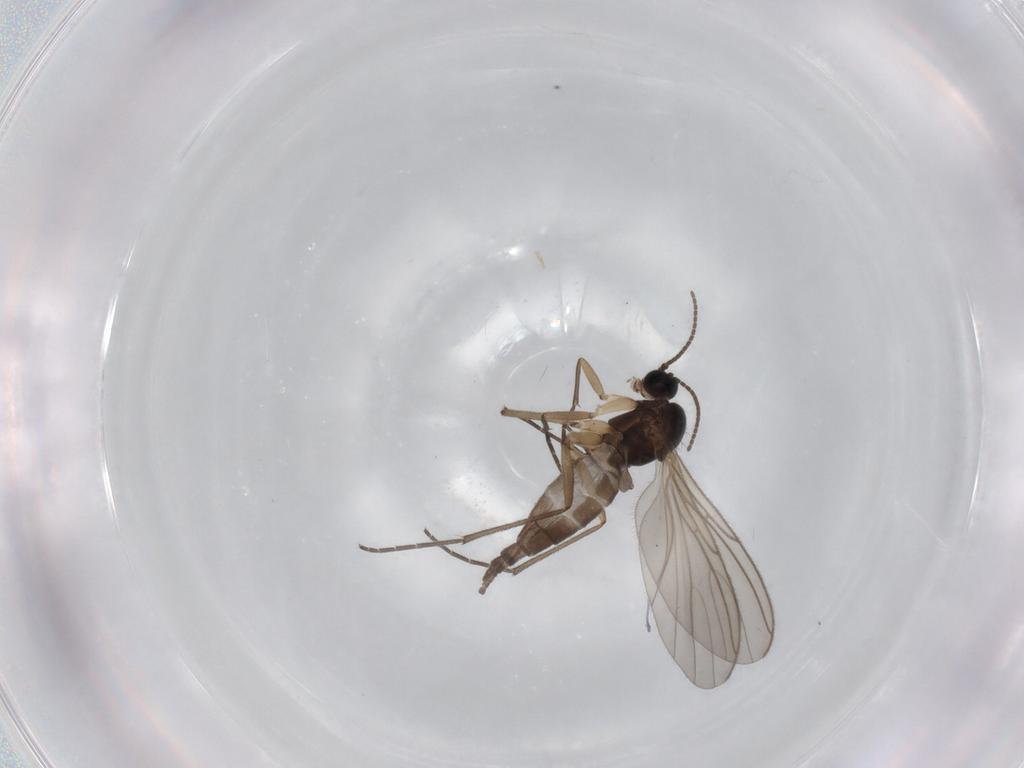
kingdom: Animalia
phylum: Arthropoda
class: Insecta
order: Diptera
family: Sciaridae
